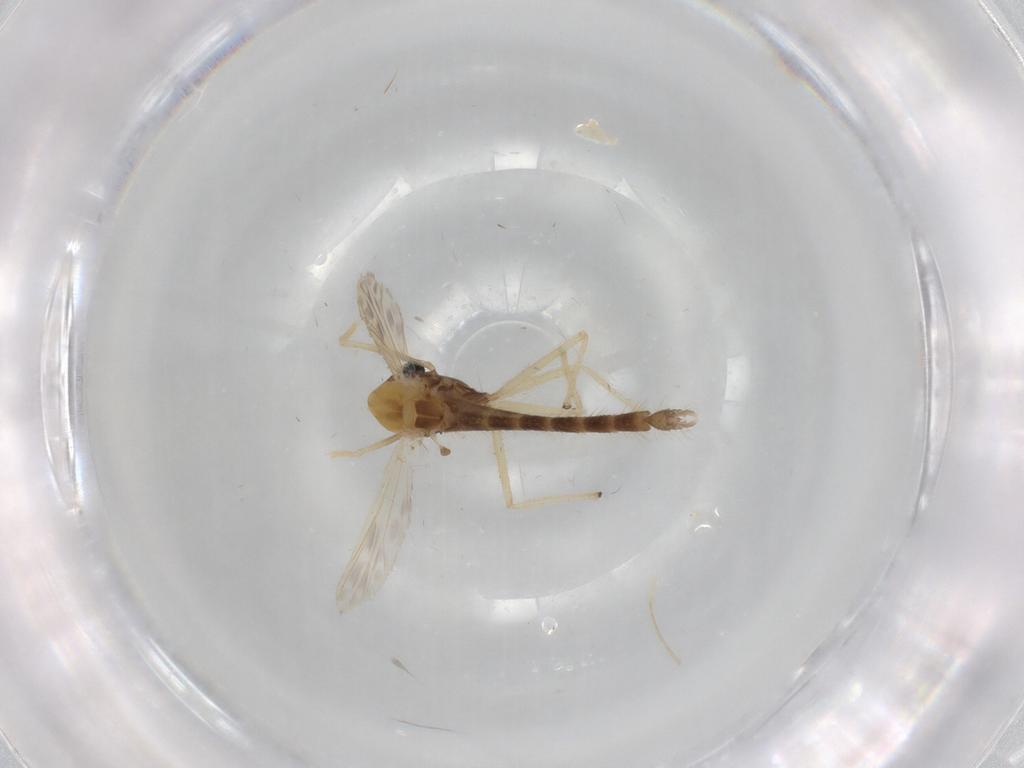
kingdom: Animalia
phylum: Arthropoda
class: Insecta
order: Diptera
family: Chironomidae
